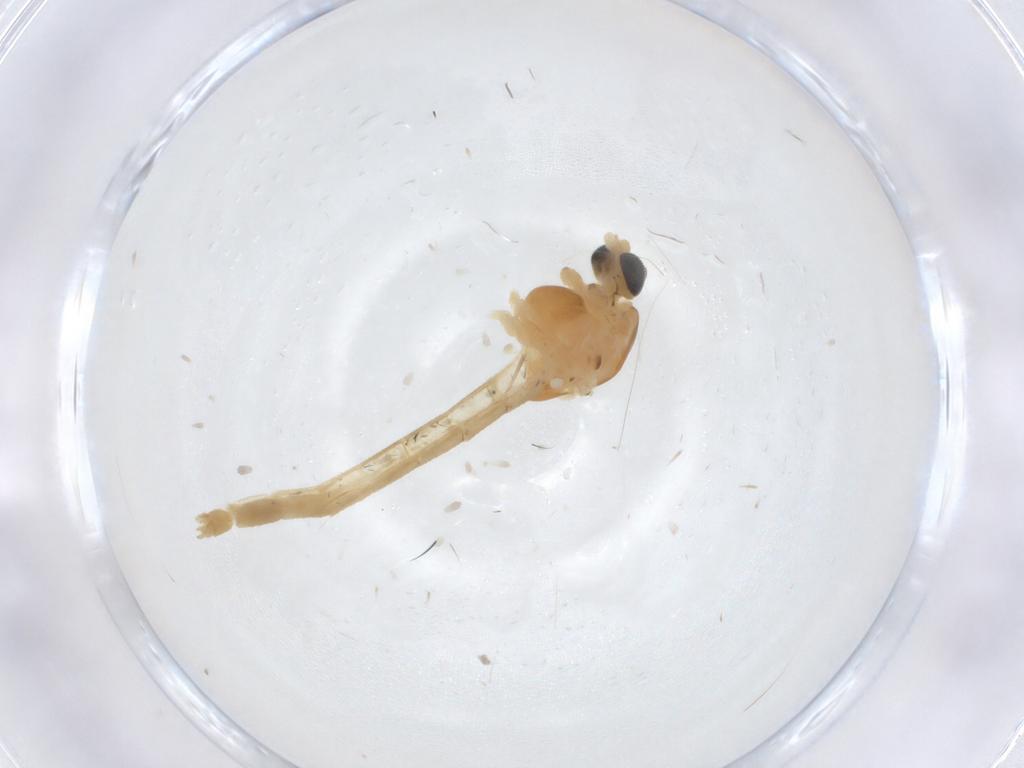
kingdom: Animalia
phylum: Arthropoda
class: Insecta
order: Diptera
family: Chironomidae
